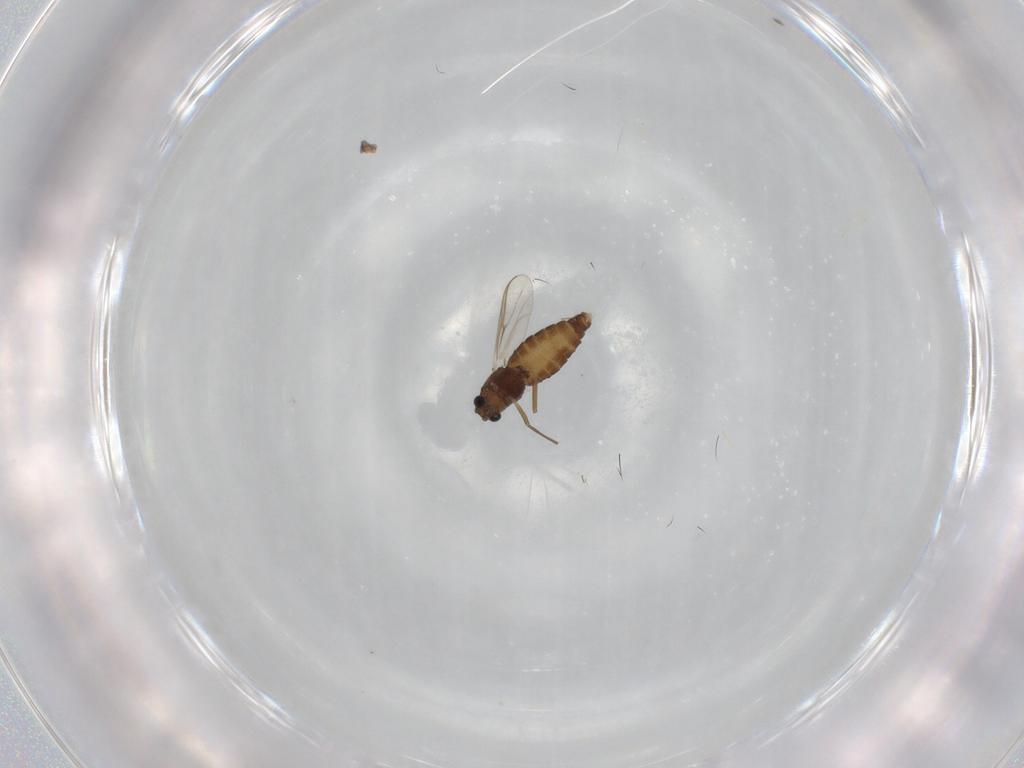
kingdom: Animalia
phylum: Arthropoda
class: Insecta
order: Diptera
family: Chironomidae
